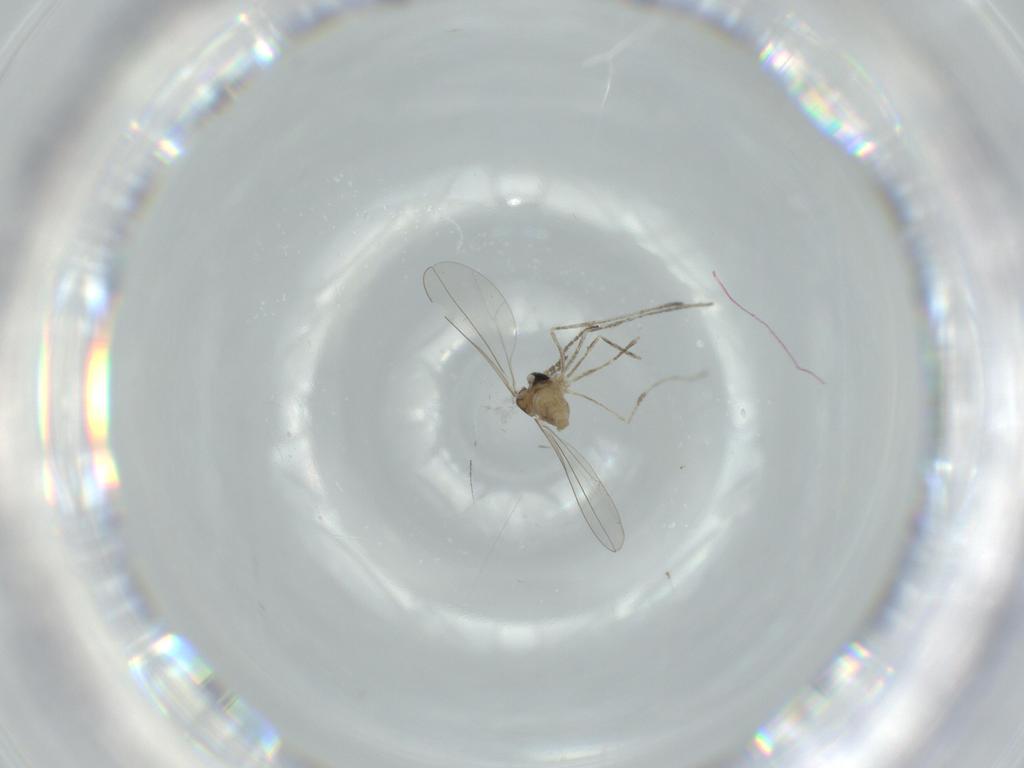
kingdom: Animalia
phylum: Arthropoda
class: Insecta
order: Diptera
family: Cecidomyiidae
